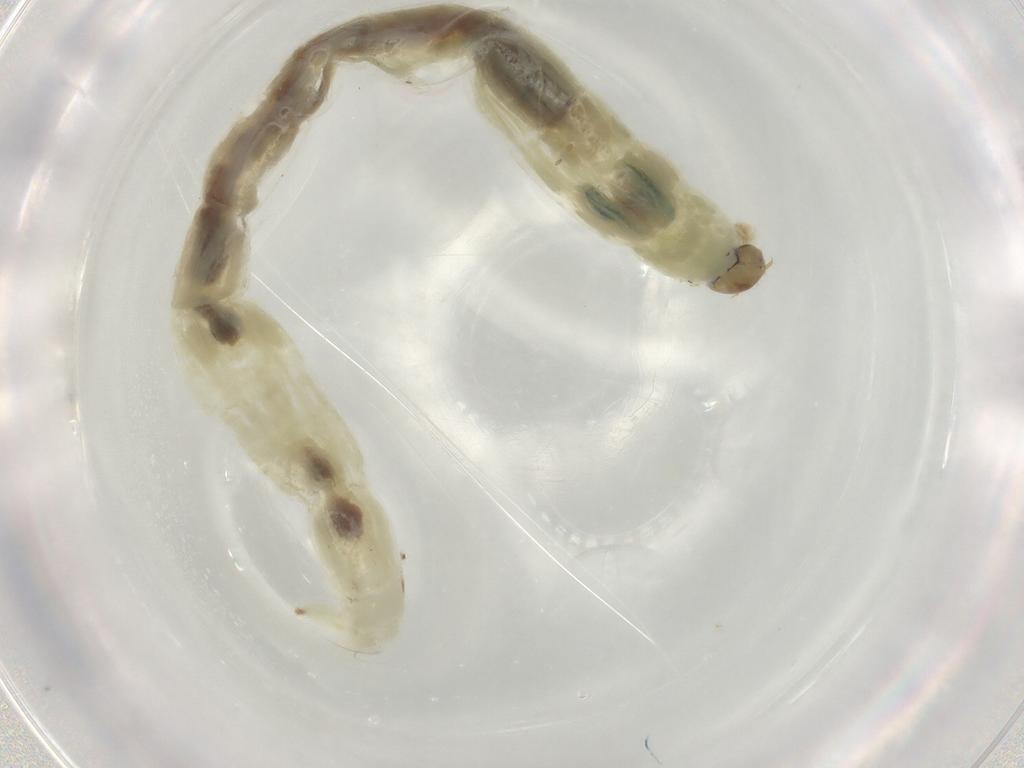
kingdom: Animalia
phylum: Arthropoda
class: Insecta
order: Diptera
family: Chironomidae
